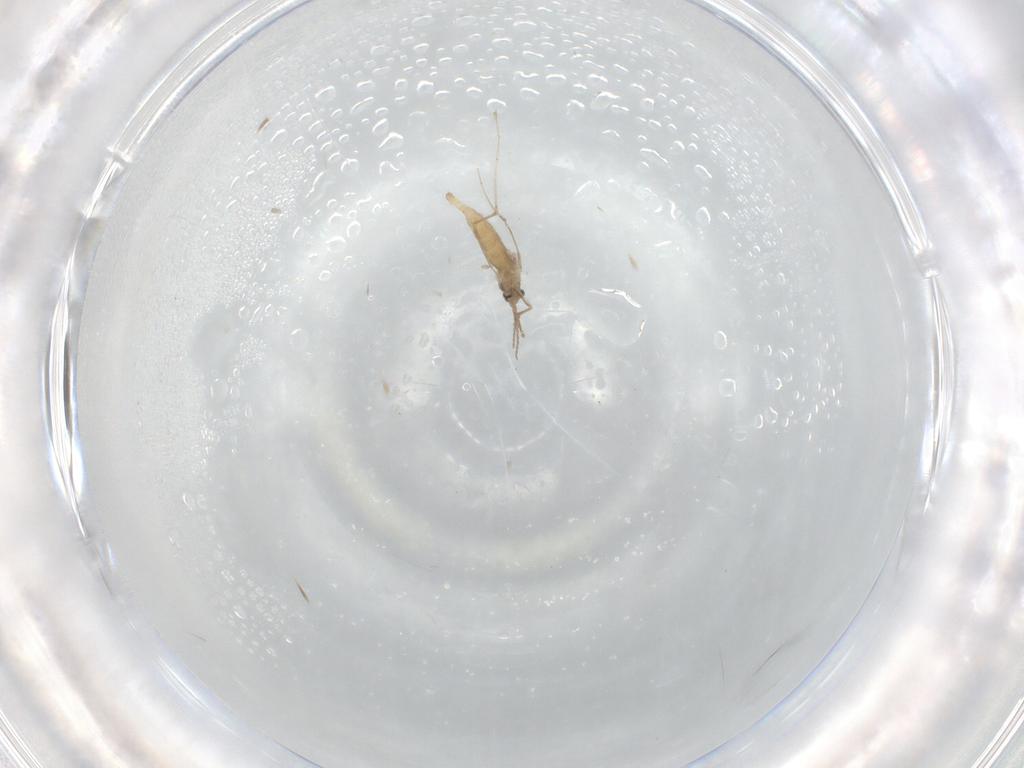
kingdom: Animalia
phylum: Arthropoda
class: Insecta
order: Diptera
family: Cecidomyiidae
